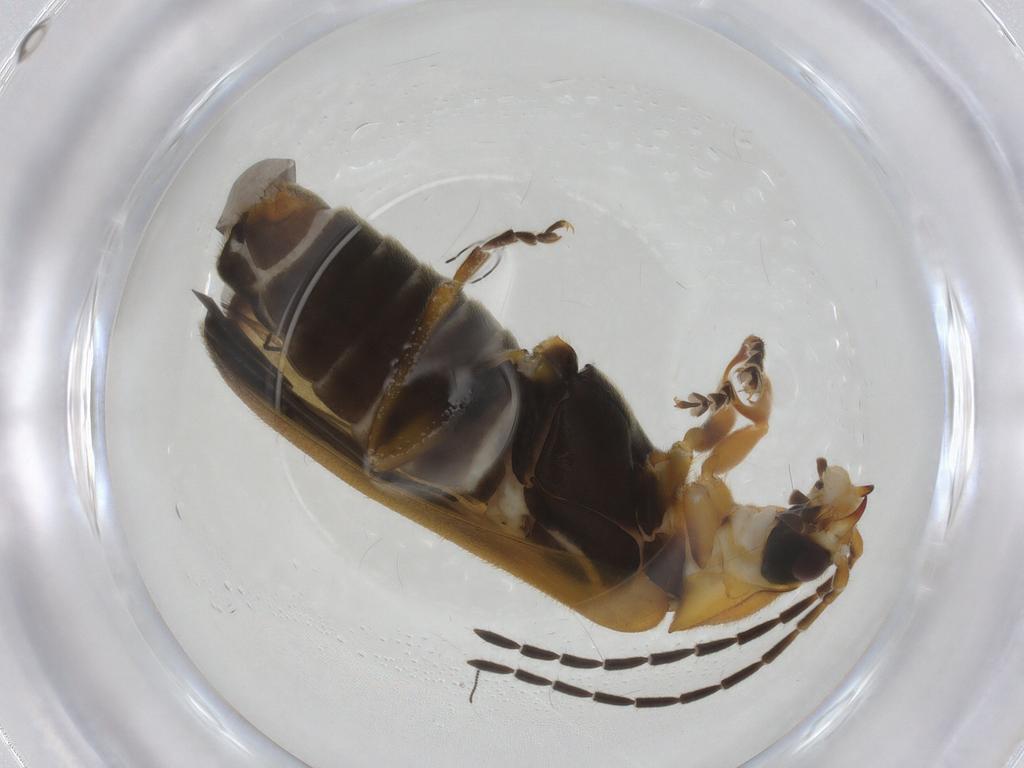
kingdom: Animalia
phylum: Arthropoda
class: Insecta
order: Coleoptera
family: Cantharidae
